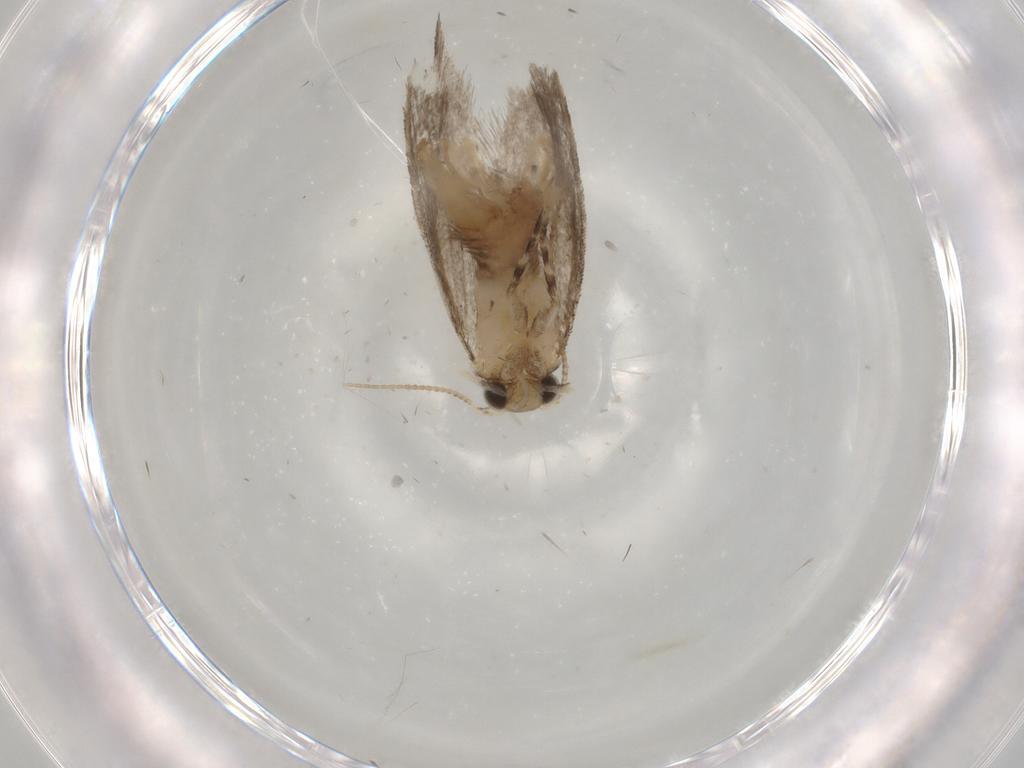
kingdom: Animalia
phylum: Arthropoda
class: Insecta
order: Lepidoptera
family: Tineidae
